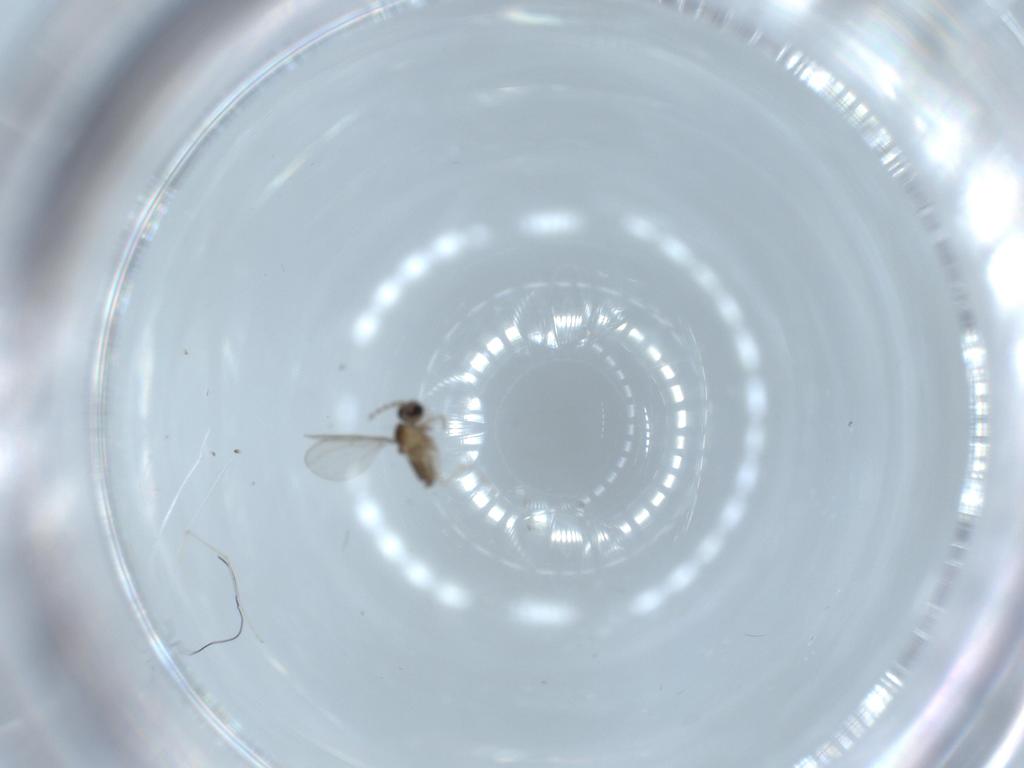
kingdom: Animalia
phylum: Arthropoda
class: Insecta
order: Diptera
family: Cecidomyiidae
